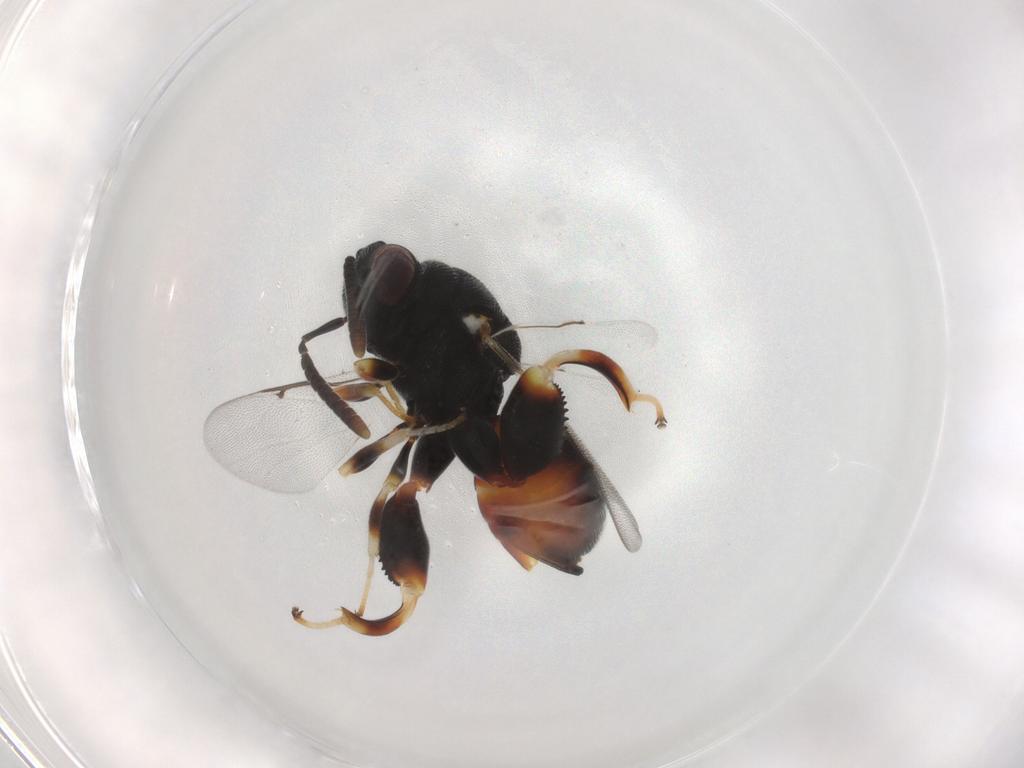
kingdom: Animalia
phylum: Arthropoda
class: Insecta
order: Hymenoptera
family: Chalcididae
